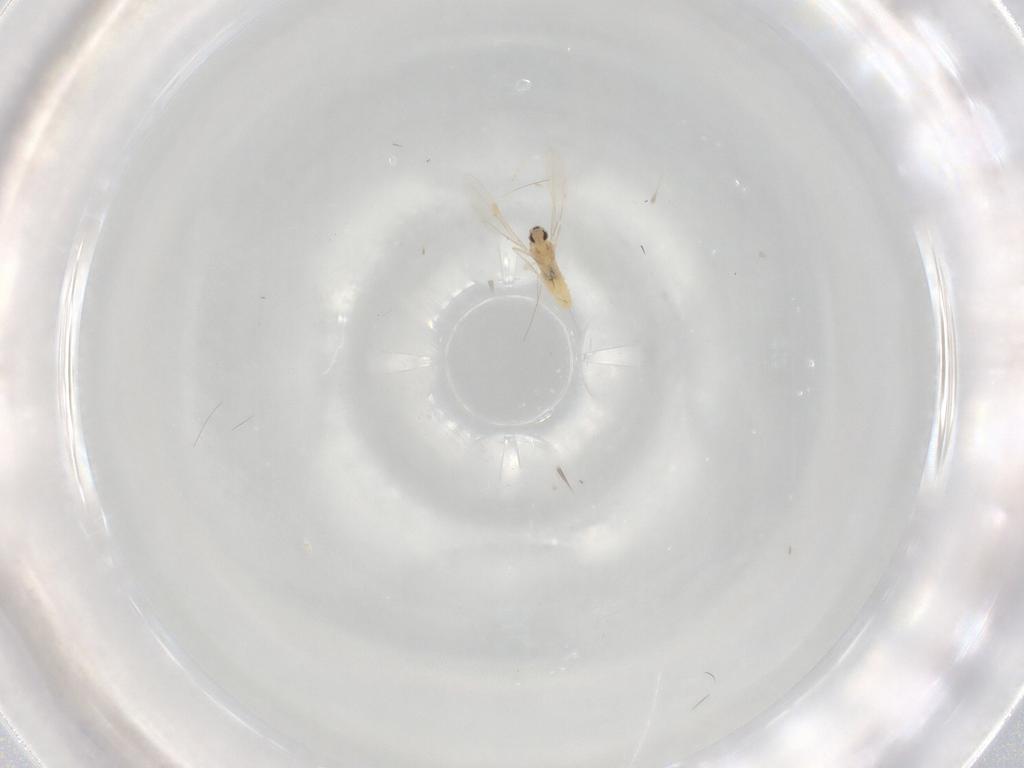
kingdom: Animalia
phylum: Arthropoda
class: Insecta
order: Diptera
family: Cecidomyiidae
